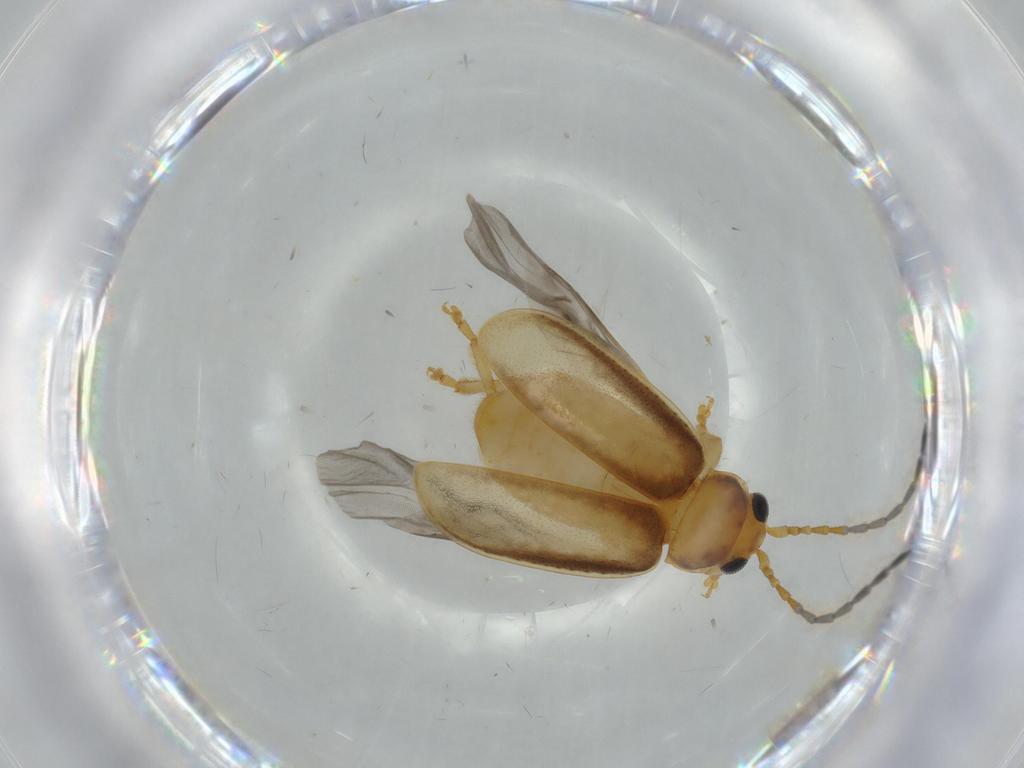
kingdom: Animalia
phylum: Arthropoda
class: Insecta
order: Coleoptera
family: Chrysomelidae
